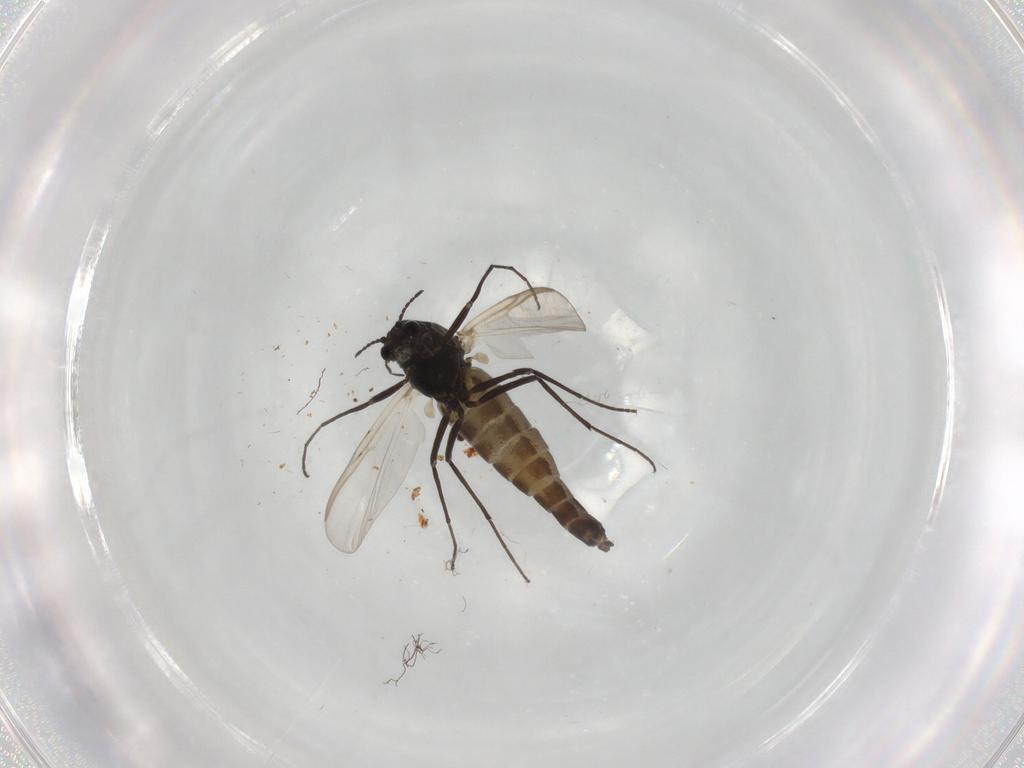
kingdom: Animalia
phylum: Arthropoda
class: Insecta
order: Diptera
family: Chironomidae
